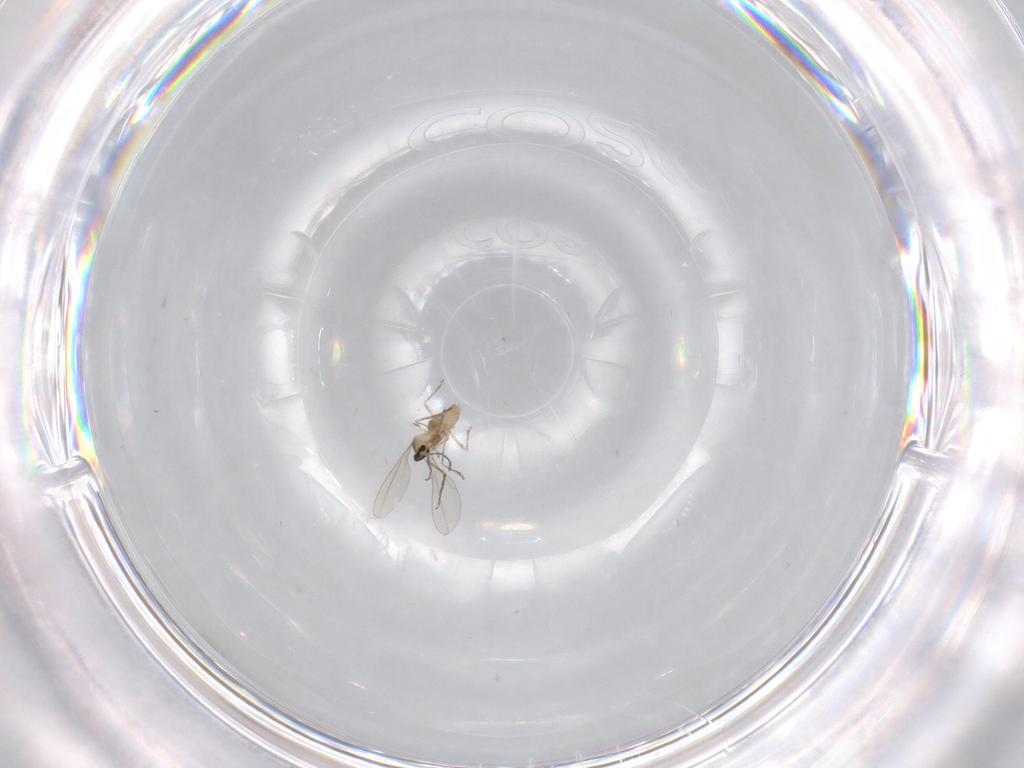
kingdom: Animalia
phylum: Arthropoda
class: Insecta
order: Diptera
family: Cecidomyiidae
